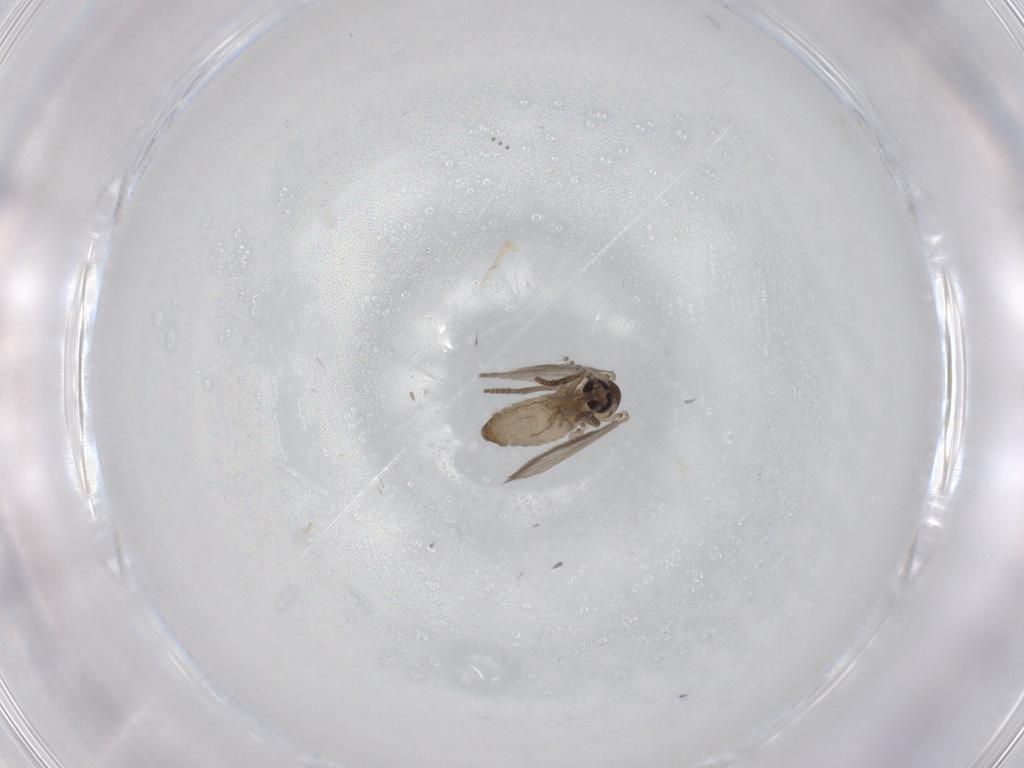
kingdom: Animalia
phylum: Arthropoda
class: Insecta
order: Diptera
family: Psychodidae
